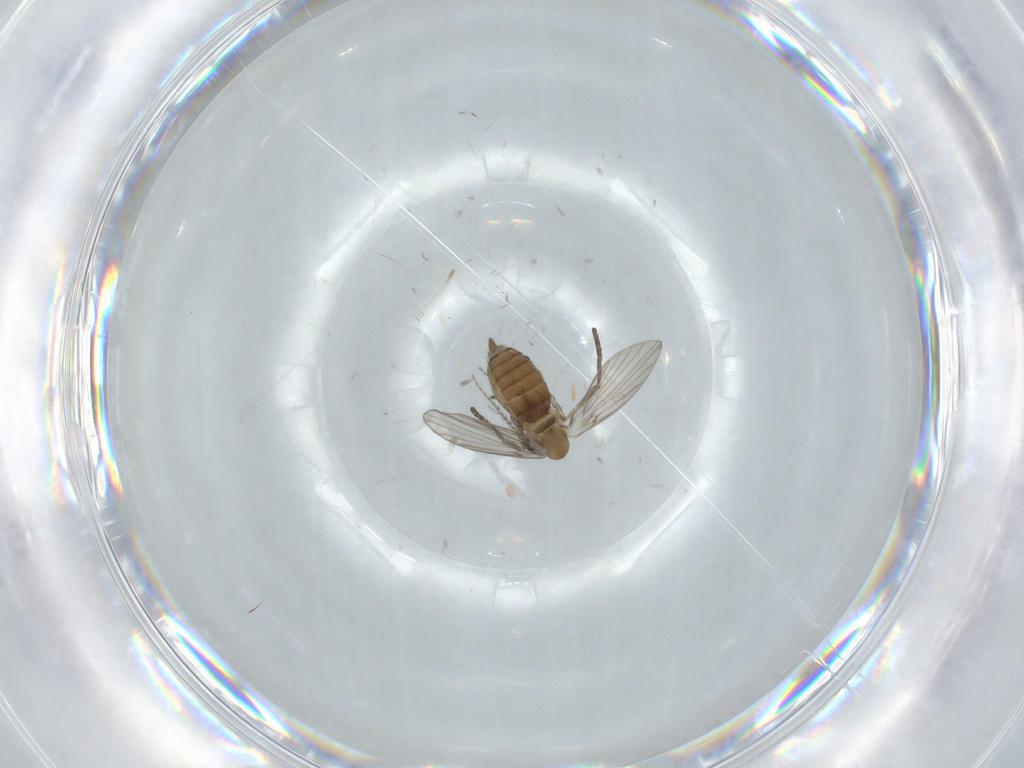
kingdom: Animalia
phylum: Arthropoda
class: Insecta
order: Diptera
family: Psychodidae
